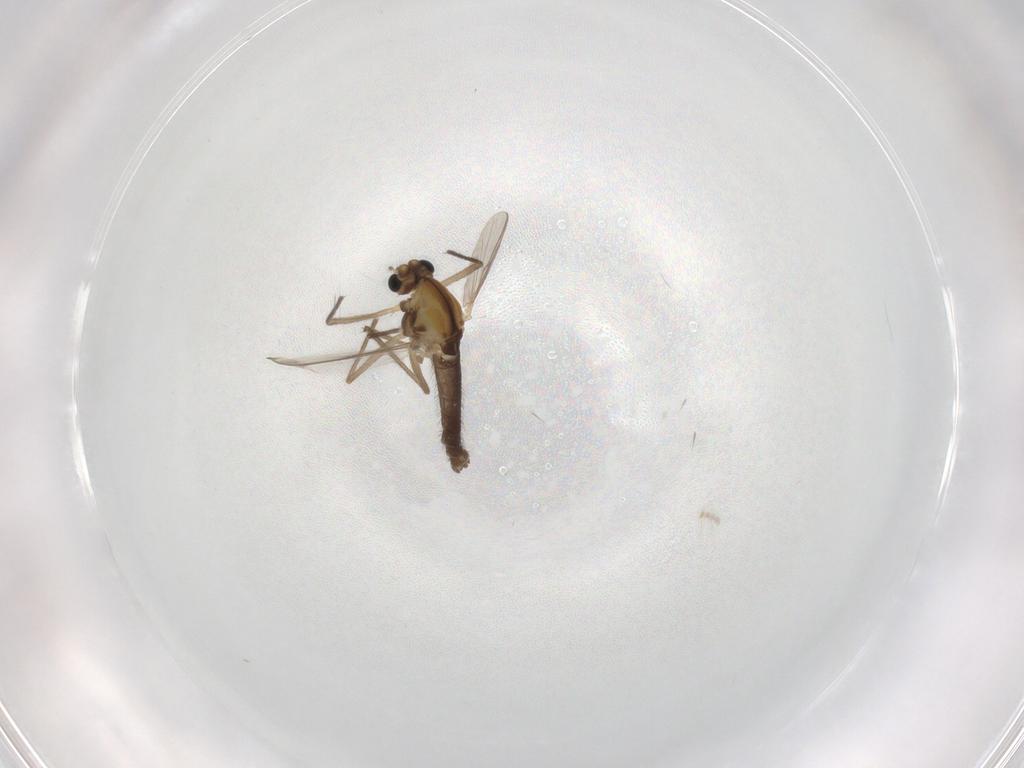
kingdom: Animalia
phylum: Arthropoda
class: Insecta
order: Diptera
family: Chironomidae
